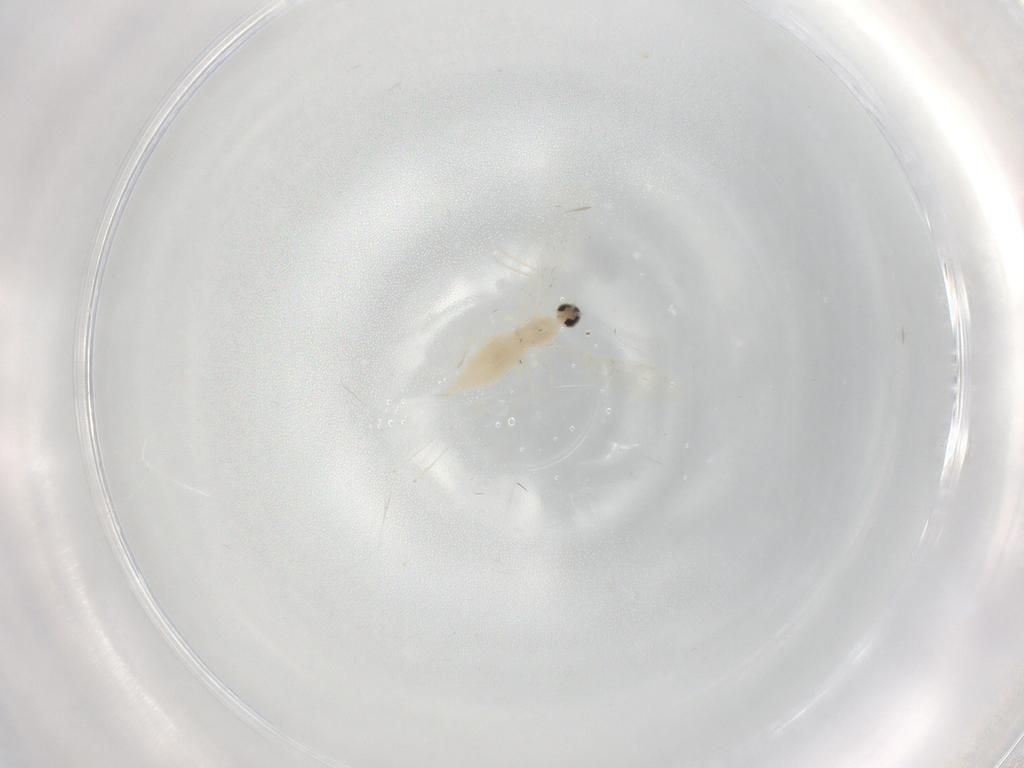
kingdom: Animalia
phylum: Arthropoda
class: Insecta
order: Diptera
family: Cecidomyiidae
